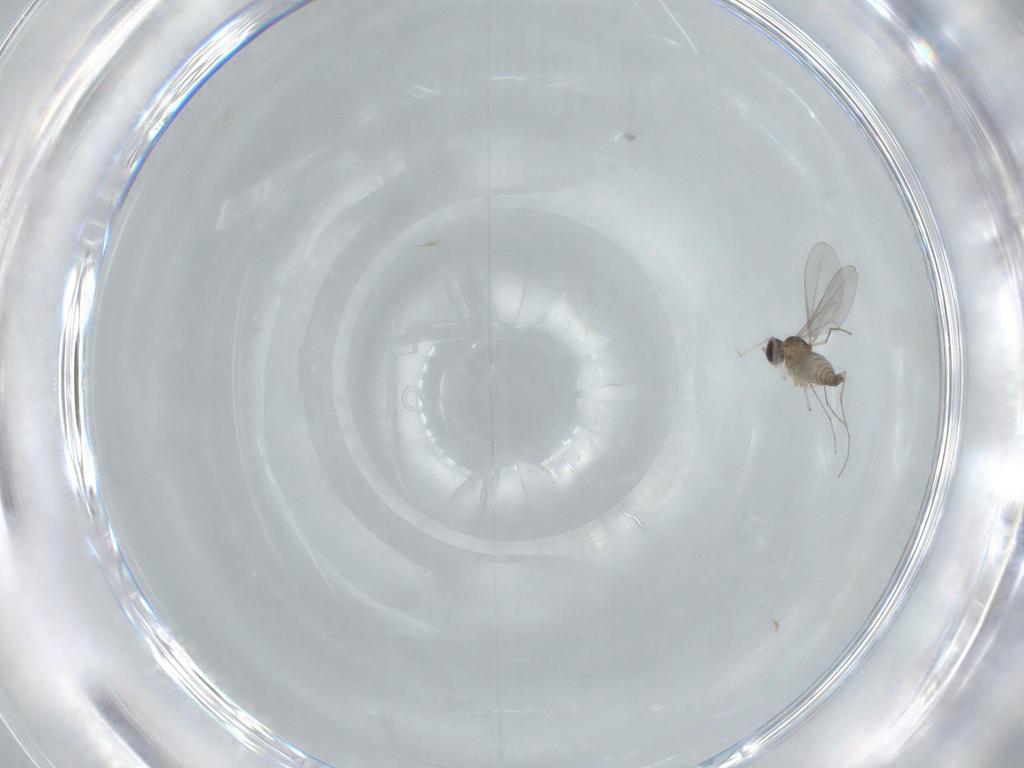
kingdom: Animalia
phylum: Arthropoda
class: Insecta
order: Diptera
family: Cecidomyiidae
